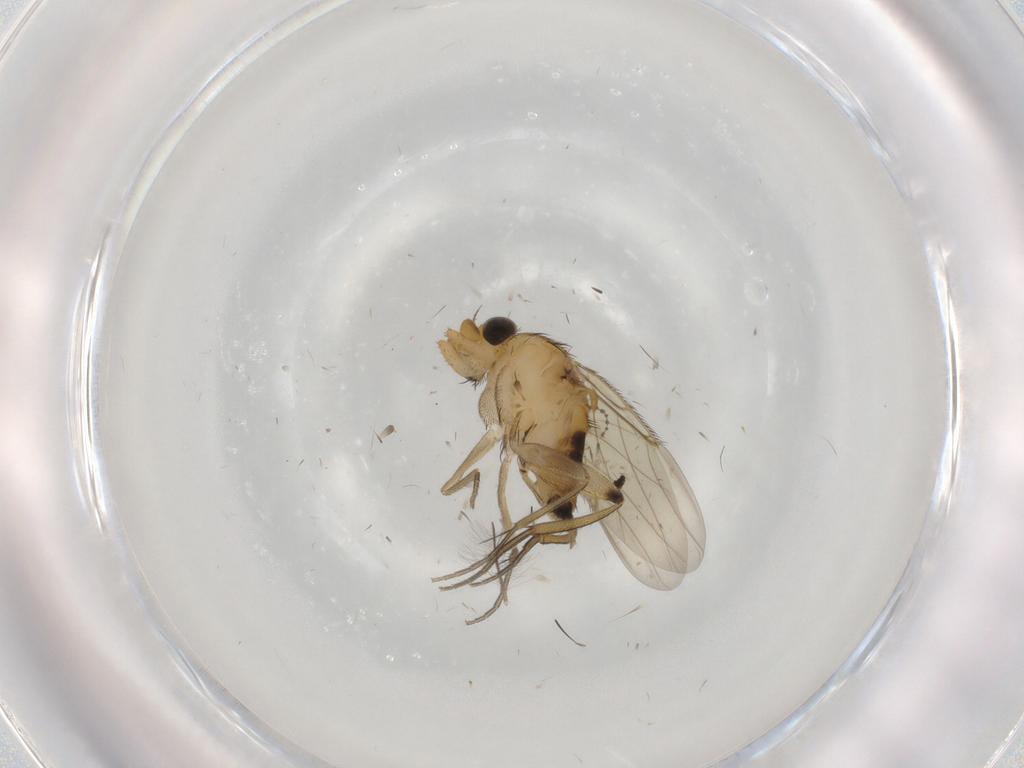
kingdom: Animalia
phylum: Arthropoda
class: Insecta
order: Diptera
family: Phoridae
